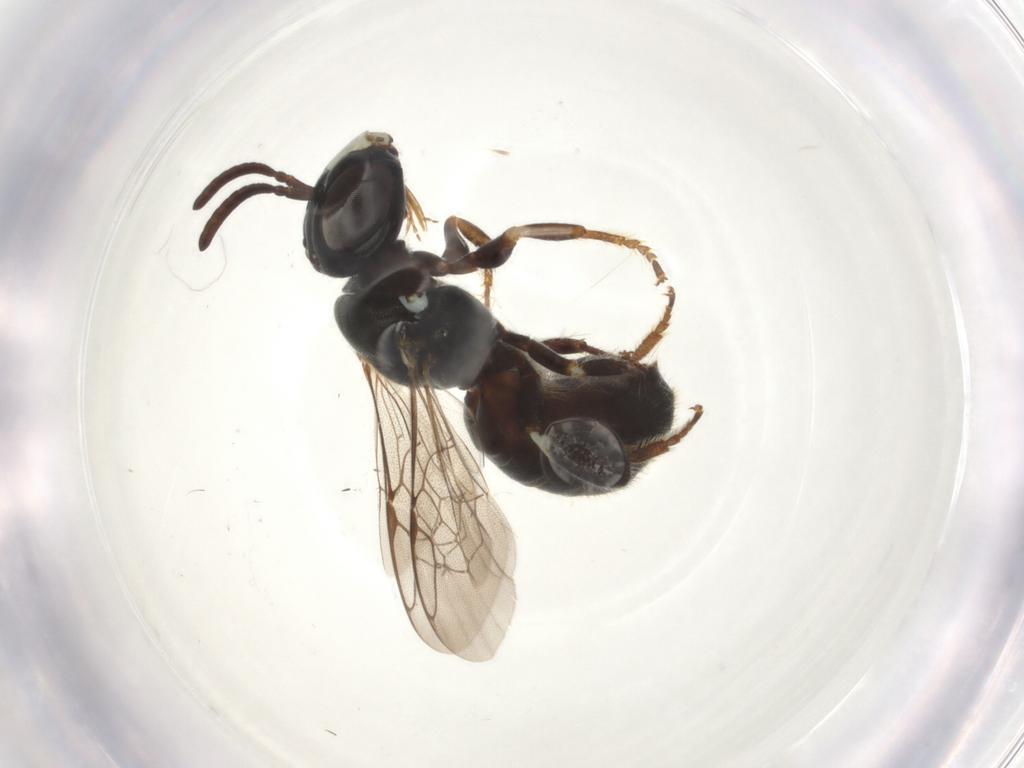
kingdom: Animalia
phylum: Arthropoda
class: Insecta
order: Hymenoptera
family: Apidae
